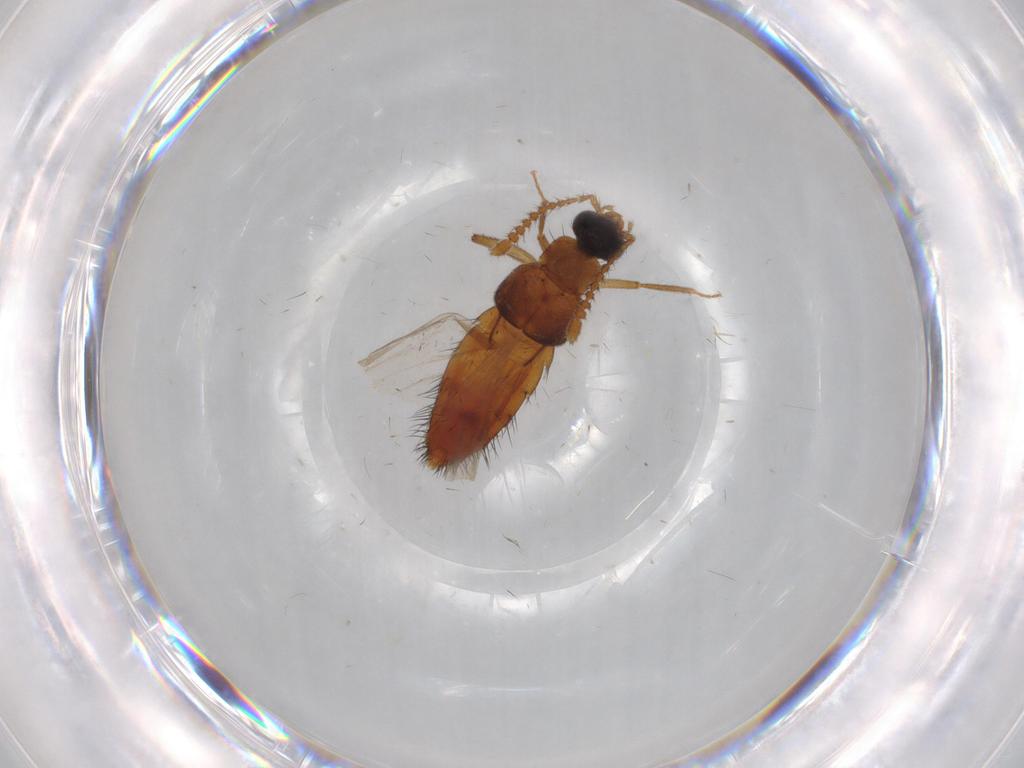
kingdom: Animalia
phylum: Arthropoda
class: Insecta
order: Coleoptera
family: Staphylinidae
